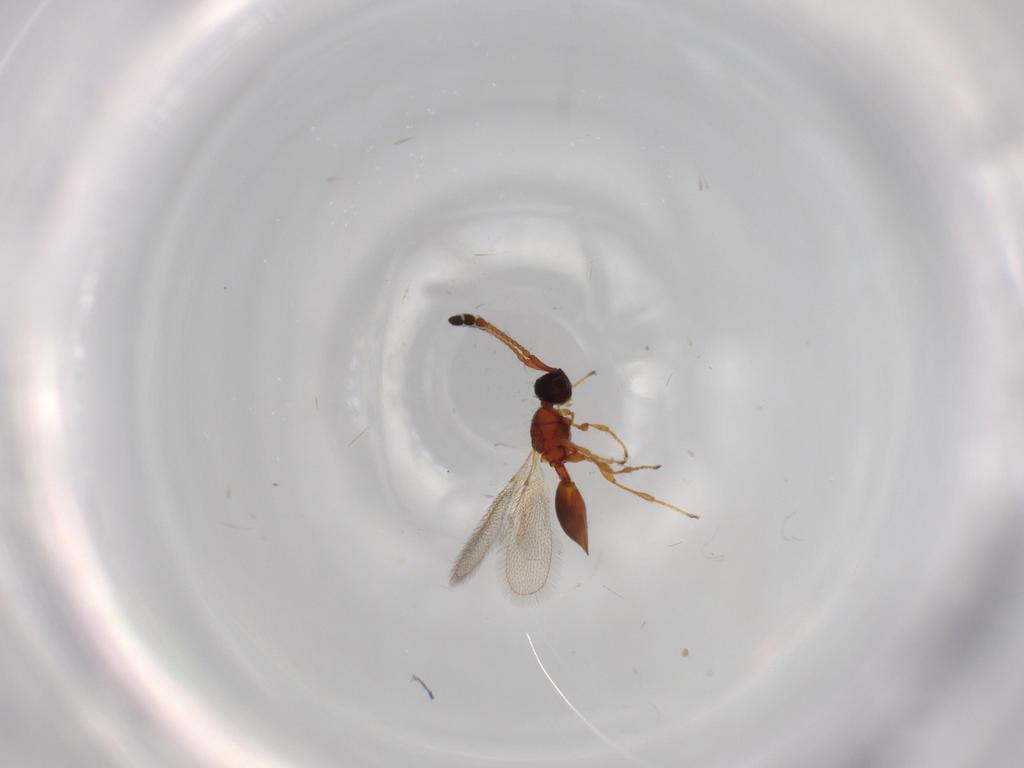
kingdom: Animalia
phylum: Arthropoda
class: Insecta
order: Hymenoptera
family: Diapriidae
